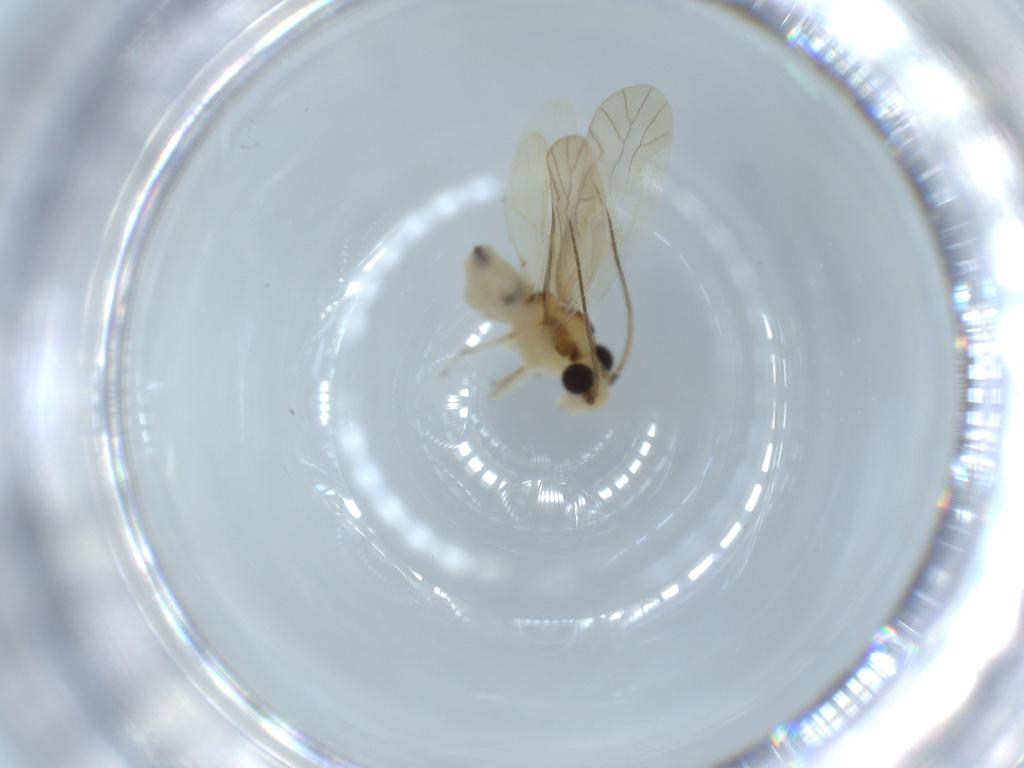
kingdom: Animalia
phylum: Arthropoda
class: Insecta
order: Psocodea
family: Caeciliusidae
